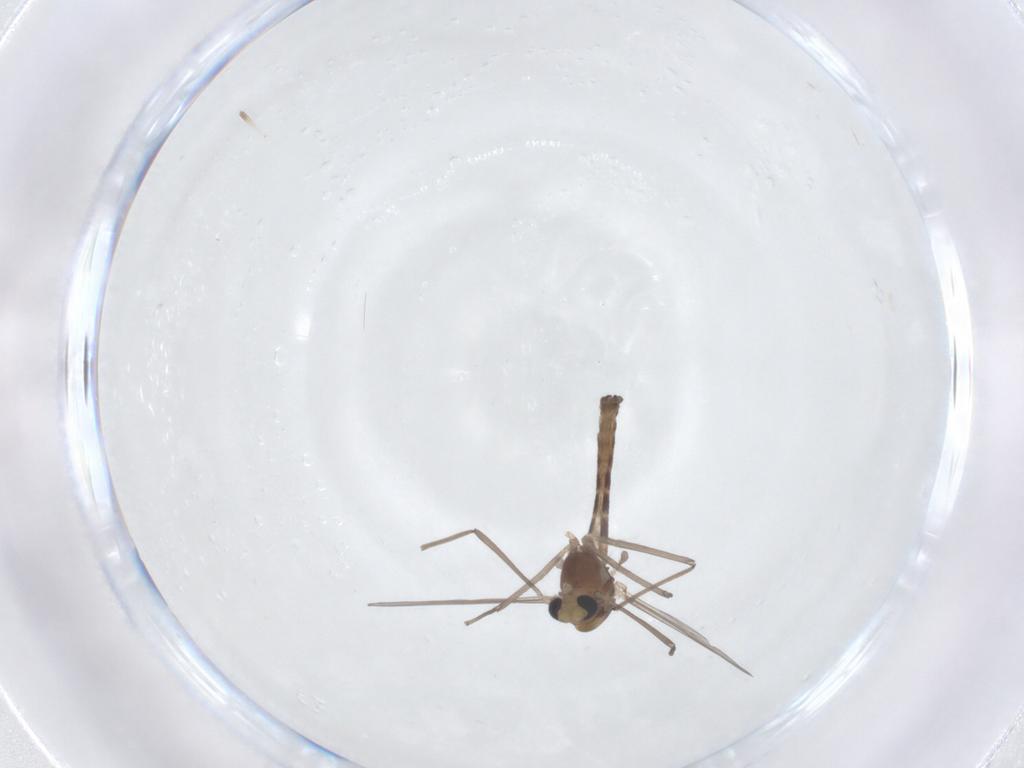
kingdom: Animalia
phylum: Arthropoda
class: Insecta
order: Diptera
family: Chironomidae
